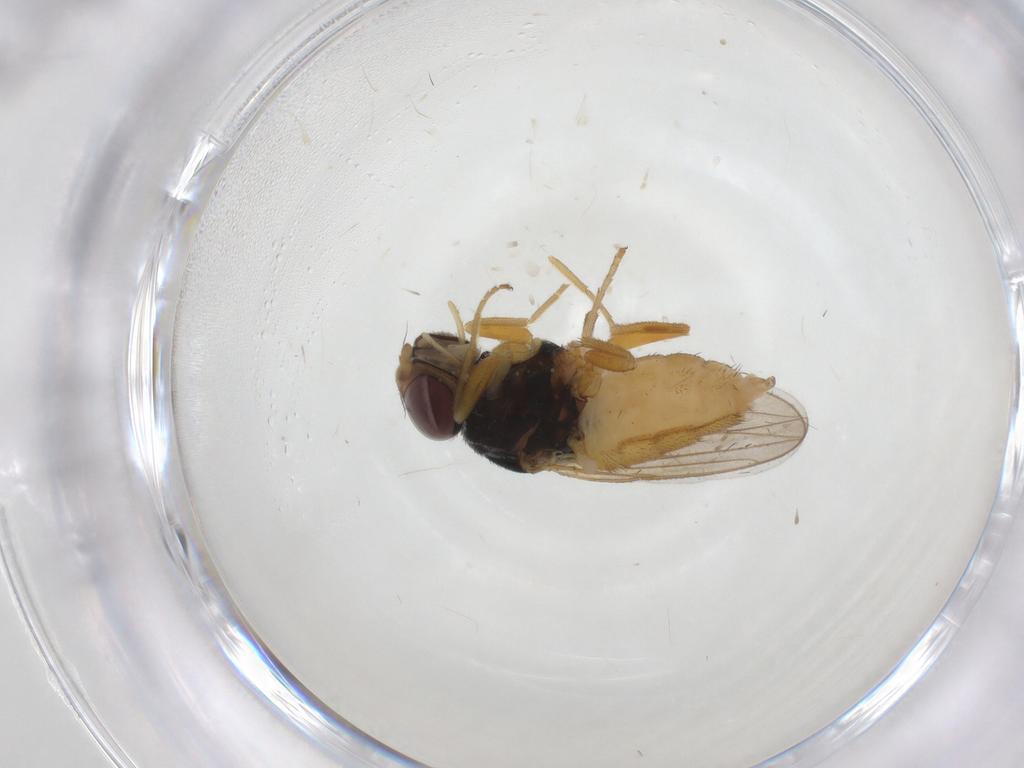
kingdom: Animalia
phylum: Arthropoda
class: Insecta
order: Diptera
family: Chloropidae
